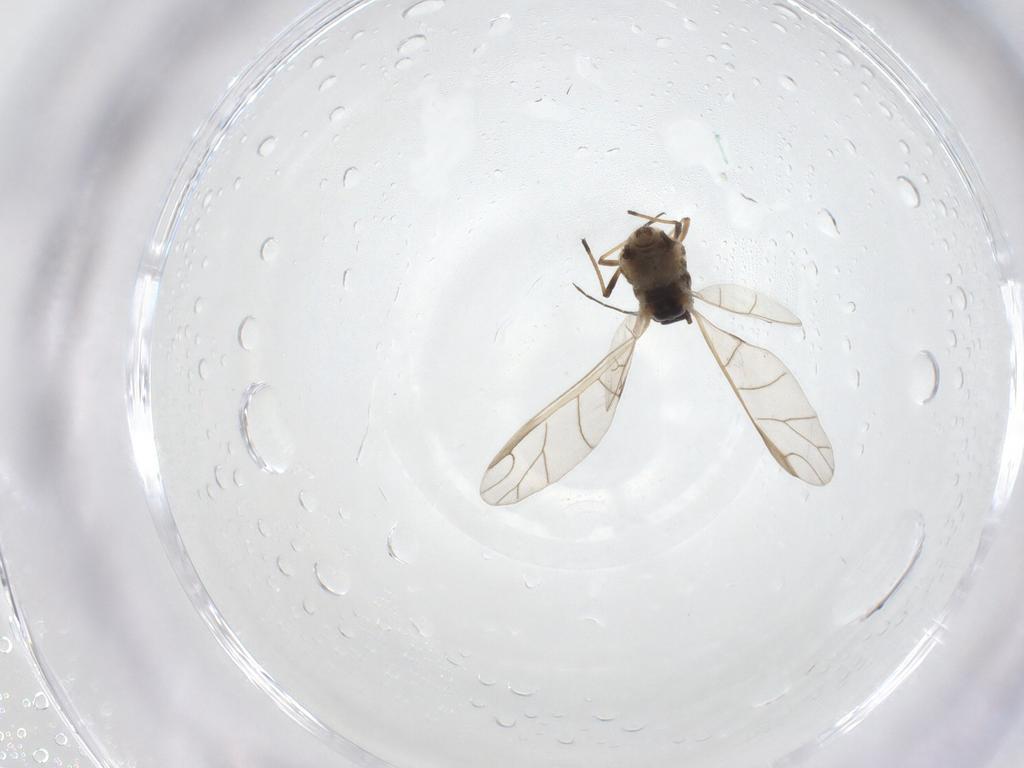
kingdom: Animalia
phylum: Arthropoda
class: Insecta
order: Hemiptera
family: Aphididae
